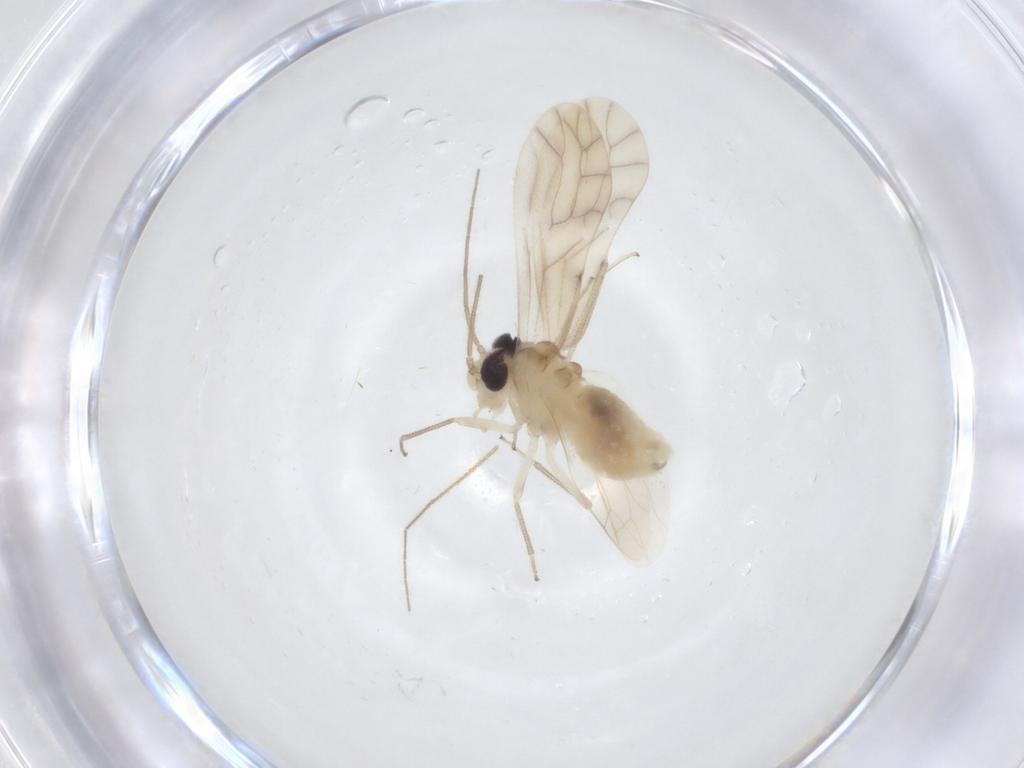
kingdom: Animalia
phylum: Arthropoda
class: Insecta
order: Psocodea
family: Caeciliusidae
